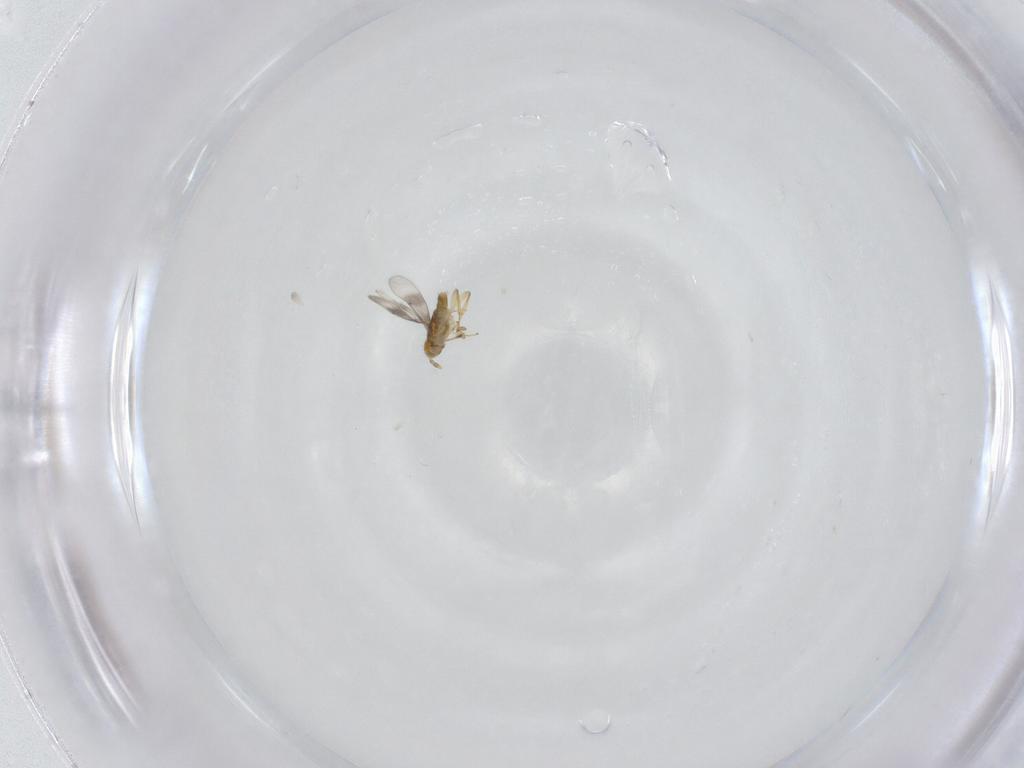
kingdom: Animalia
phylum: Arthropoda
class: Insecta
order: Hymenoptera
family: Aphelinidae
